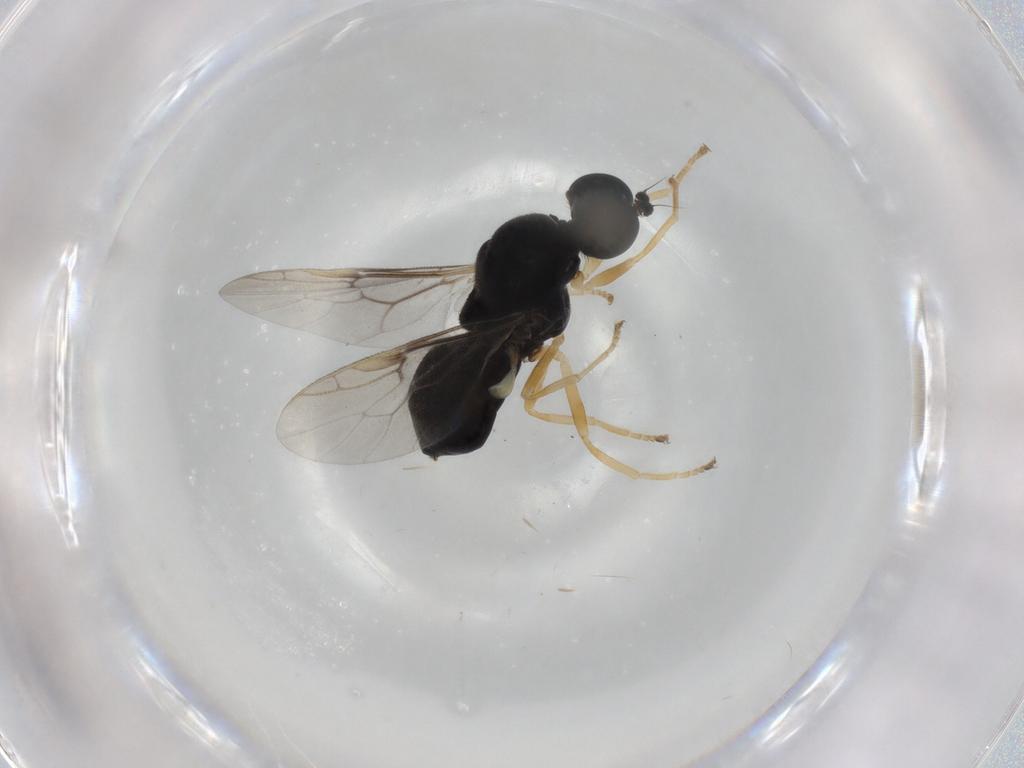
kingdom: Animalia
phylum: Arthropoda
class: Insecta
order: Diptera
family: Stratiomyidae
